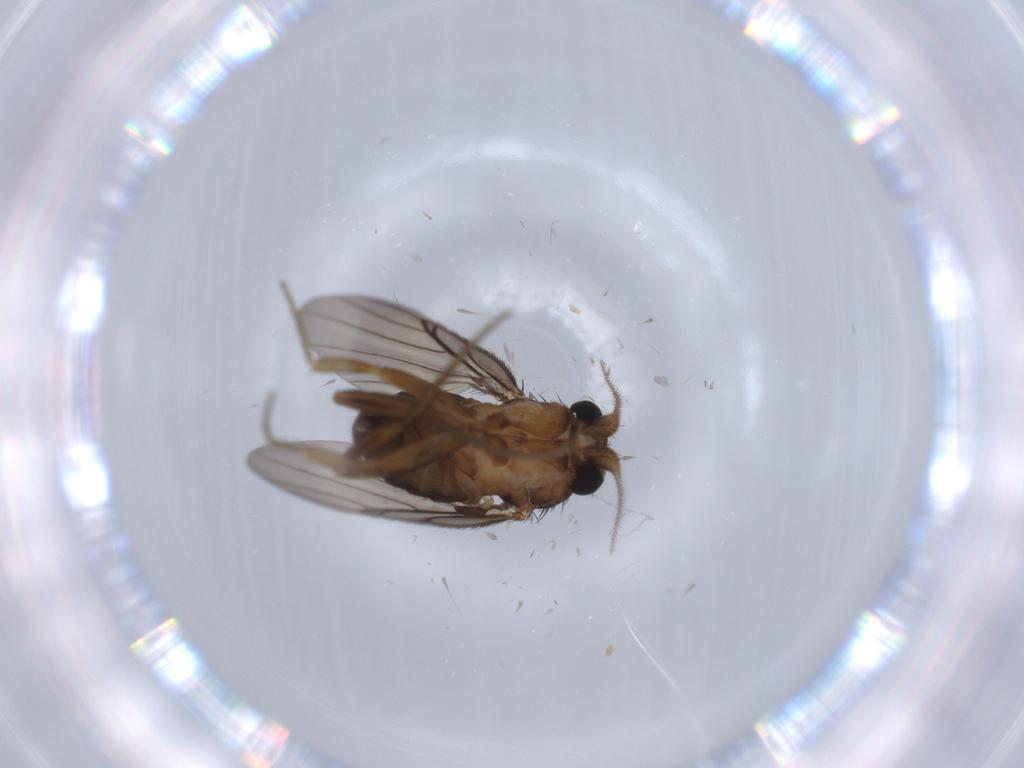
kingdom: Animalia
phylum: Arthropoda
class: Insecta
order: Diptera
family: Phoridae
